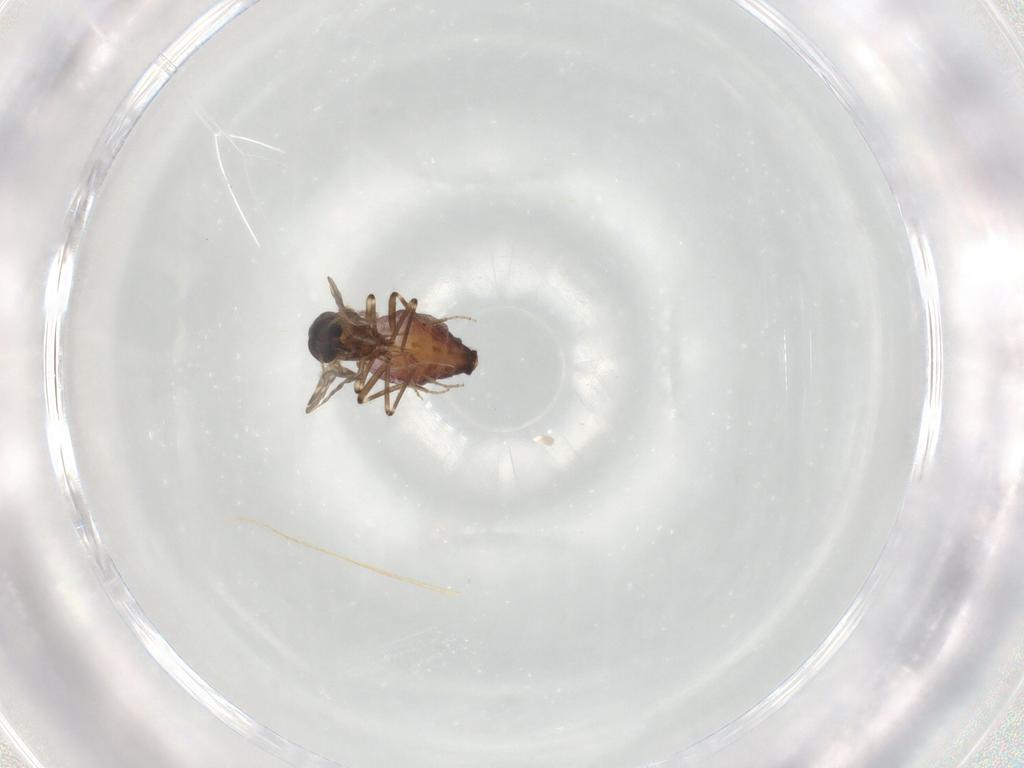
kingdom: Animalia
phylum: Arthropoda
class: Insecta
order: Diptera
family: Ceratopogonidae
